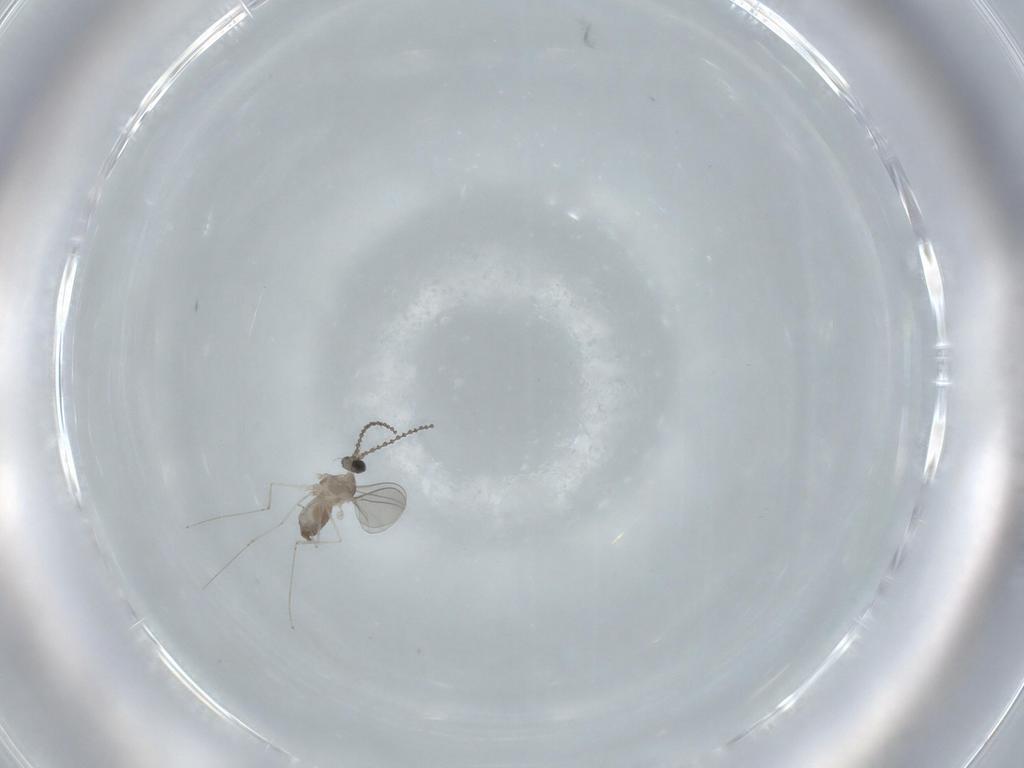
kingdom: Animalia
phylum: Arthropoda
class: Insecta
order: Diptera
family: Cecidomyiidae
